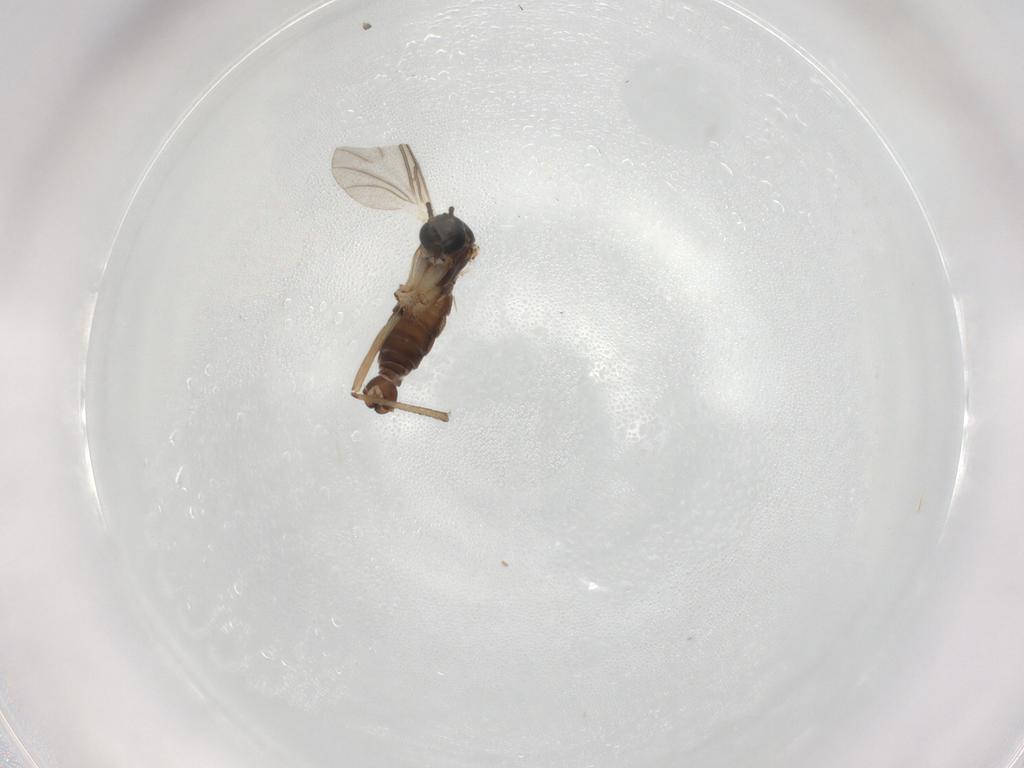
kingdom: Animalia
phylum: Arthropoda
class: Insecta
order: Diptera
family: Sciaridae
